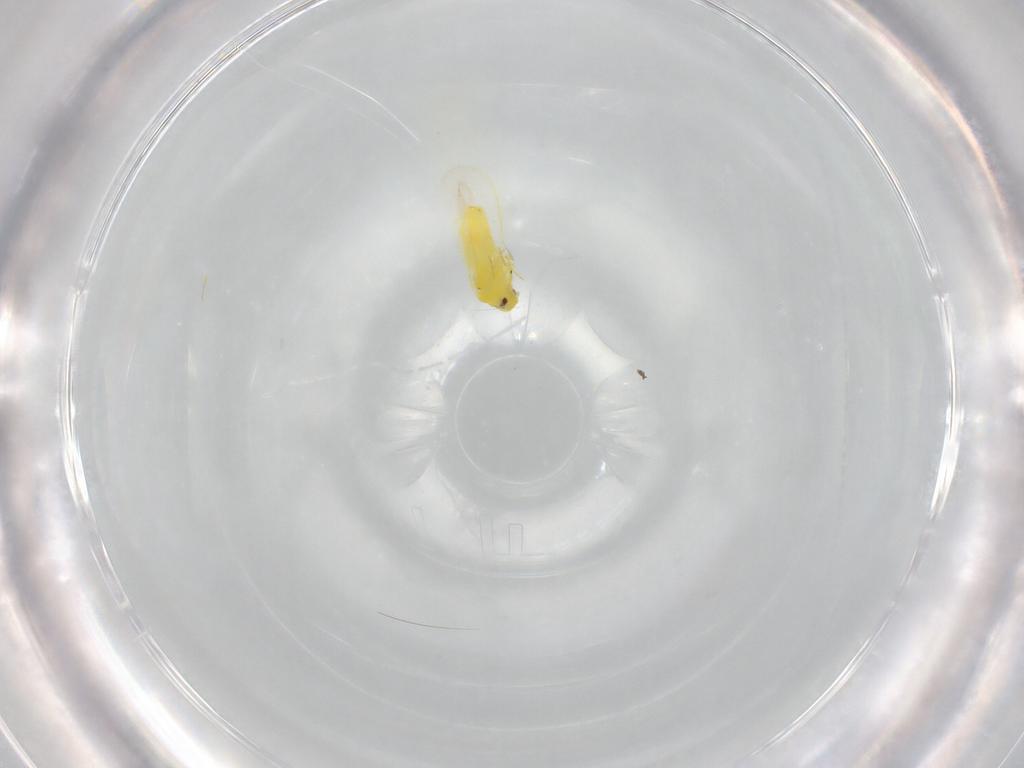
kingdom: Animalia
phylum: Arthropoda
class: Insecta
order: Hemiptera
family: Aleyrodidae
